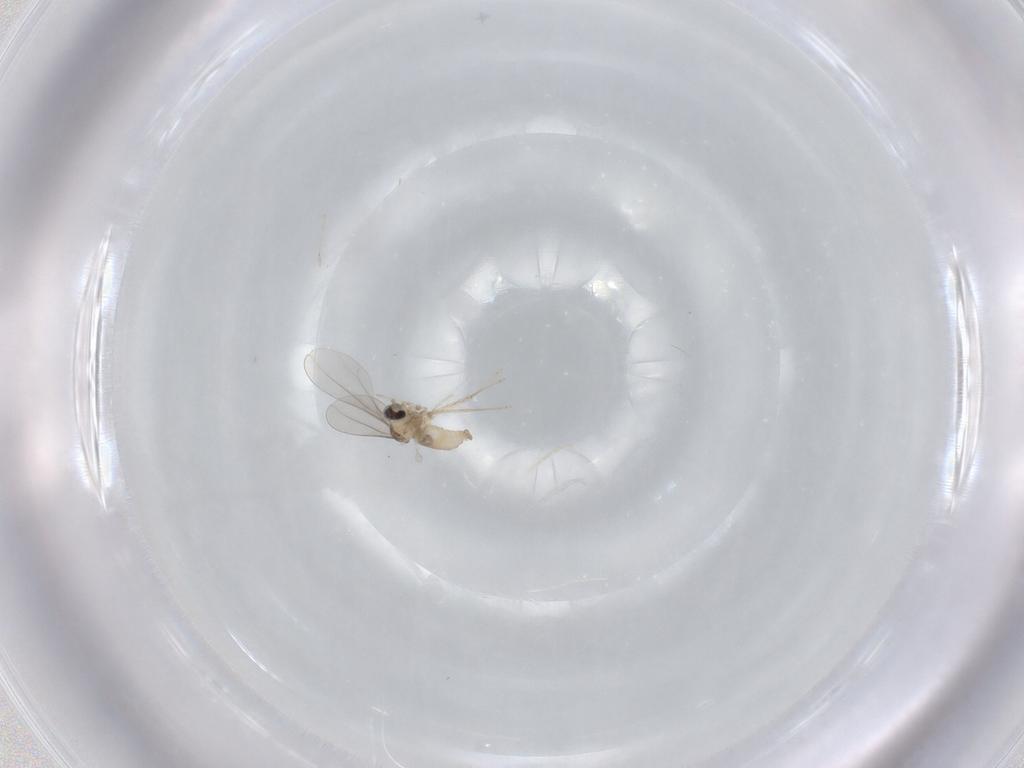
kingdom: Animalia
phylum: Arthropoda
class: Insecta
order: Diptera
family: Cecidomyiidae
